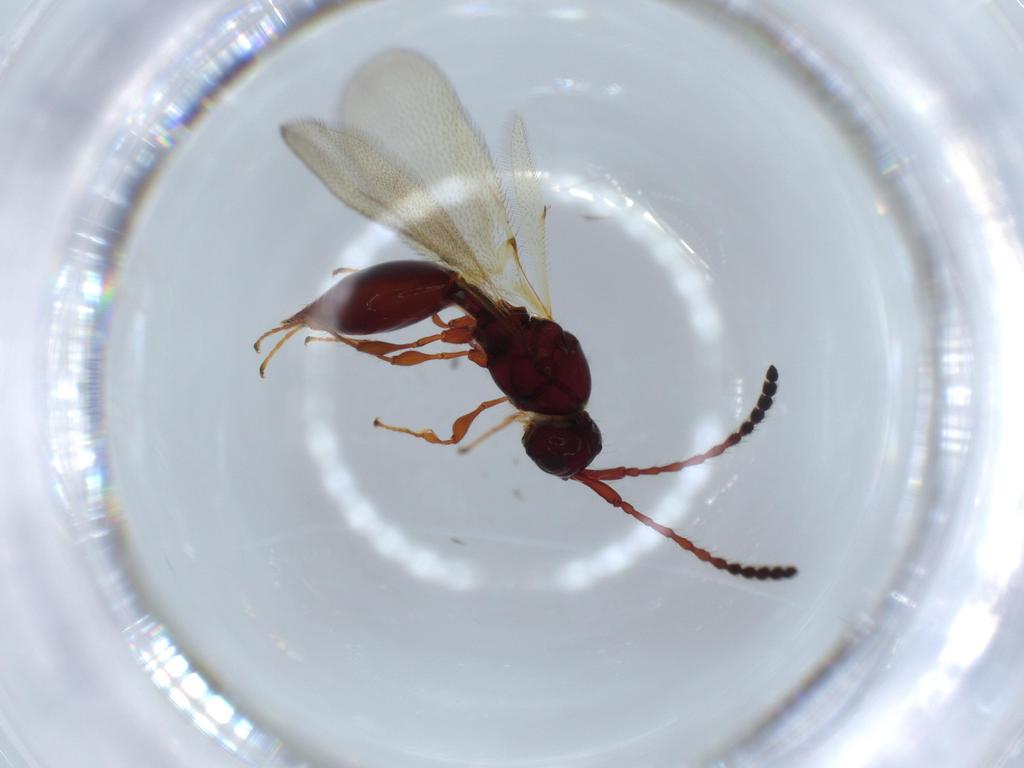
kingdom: Animalia
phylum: Arthropoda
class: Insecta
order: Hymenoptera
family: Diapriidae
